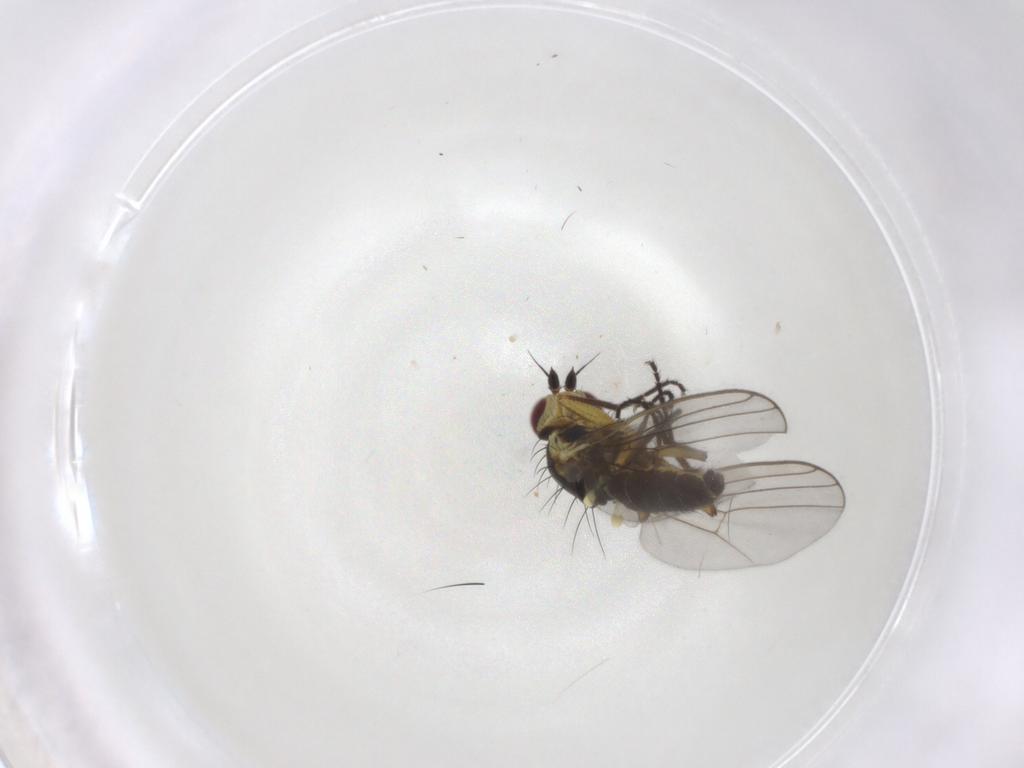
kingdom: Animalia
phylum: Arthropoda
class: Insecta
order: Diptera
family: Agromyzidae
